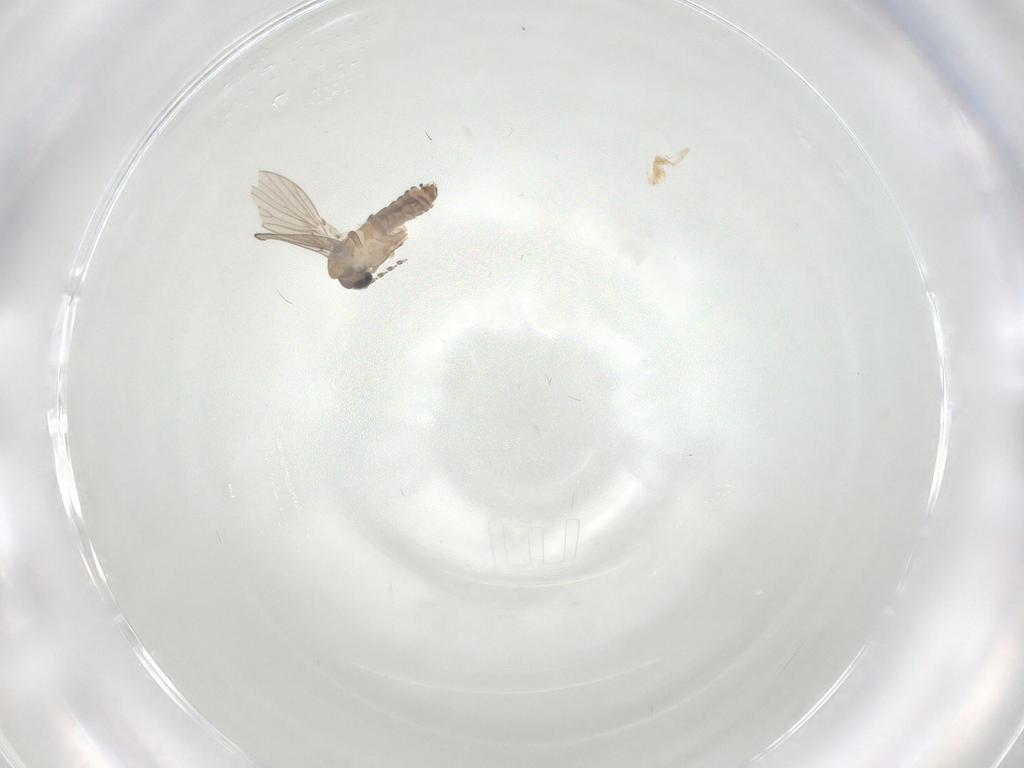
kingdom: Animalia
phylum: Arthropoda
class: Insecta
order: Diptera
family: Psychodidae
